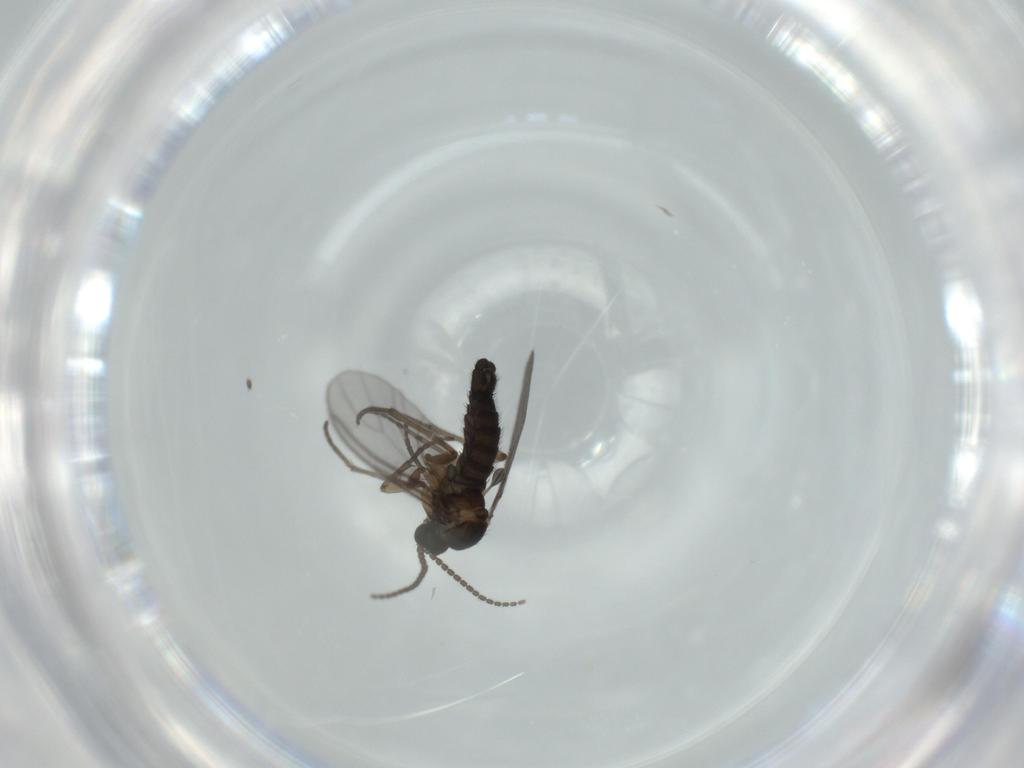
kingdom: Animalia
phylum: Arthropoda
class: Insecta
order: Diptera
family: Sciaridae
